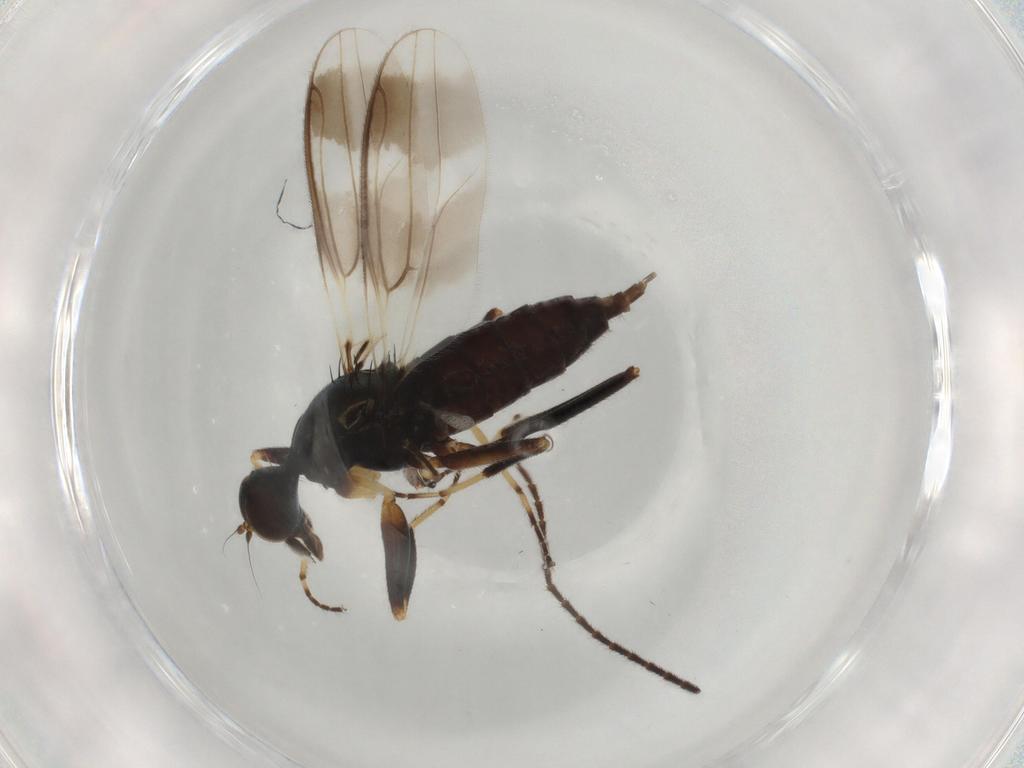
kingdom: Animalia
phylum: Arthropoda
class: Insecta
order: Diptera
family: Hybotidae
